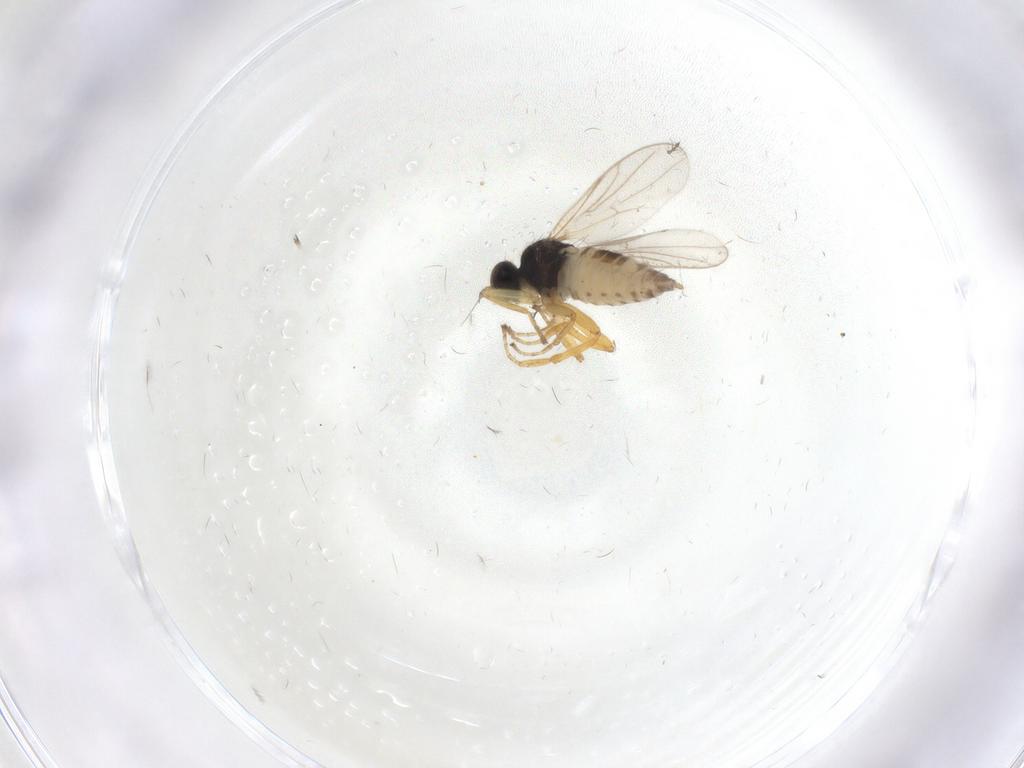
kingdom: Animalia
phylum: Arthropoda
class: Insecta
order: Diptera
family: Hybotidae
